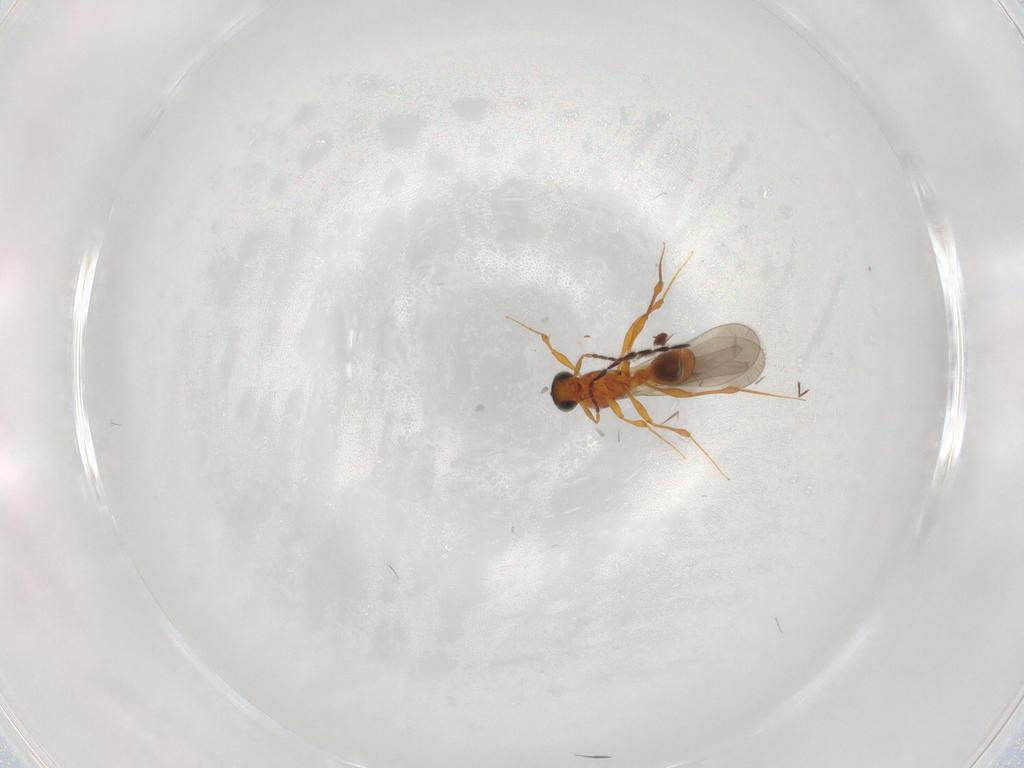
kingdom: Animalia
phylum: Arthropoda
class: Insecta
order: Hymenoptera
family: Platygastridae
